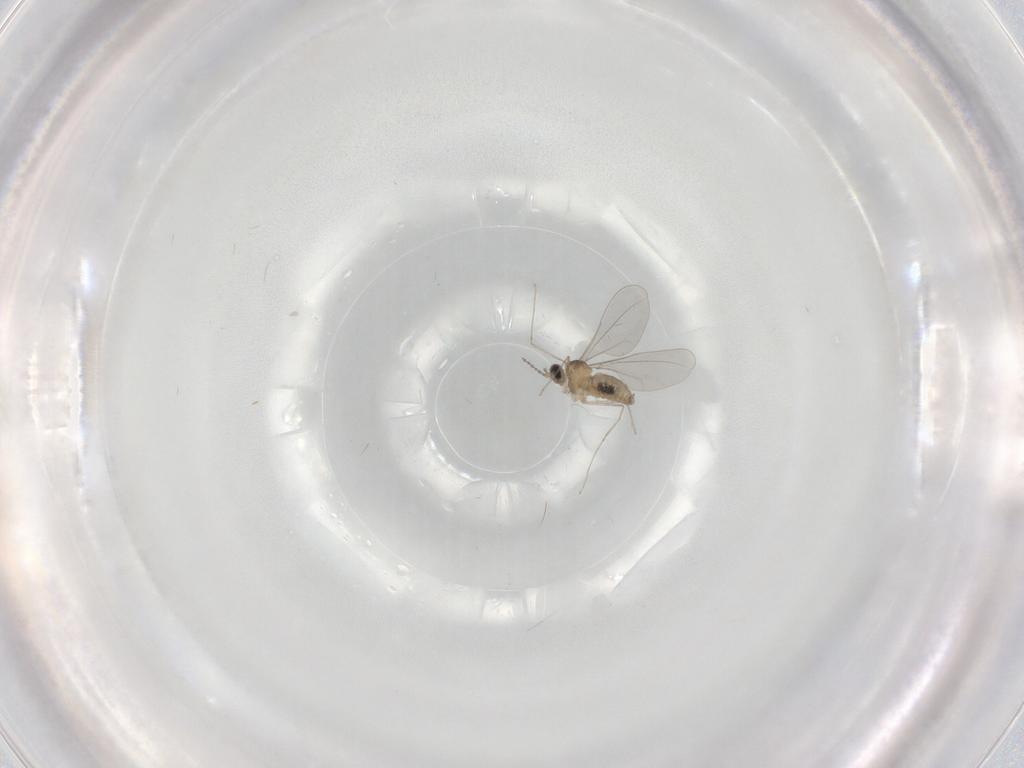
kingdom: Animalia
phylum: Arthropoda
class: Insecta
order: Diptera
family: Cecidomyiidae
